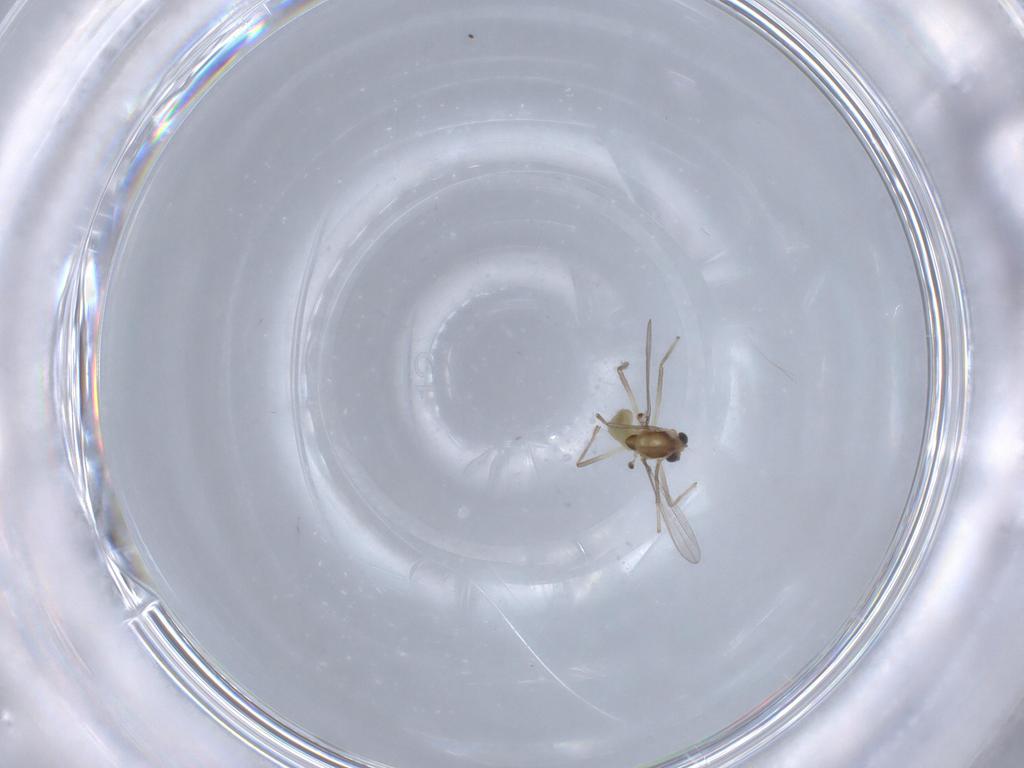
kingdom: Animalia
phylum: Arthropoda
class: Insecta
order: Diptera
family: Chironomidae
